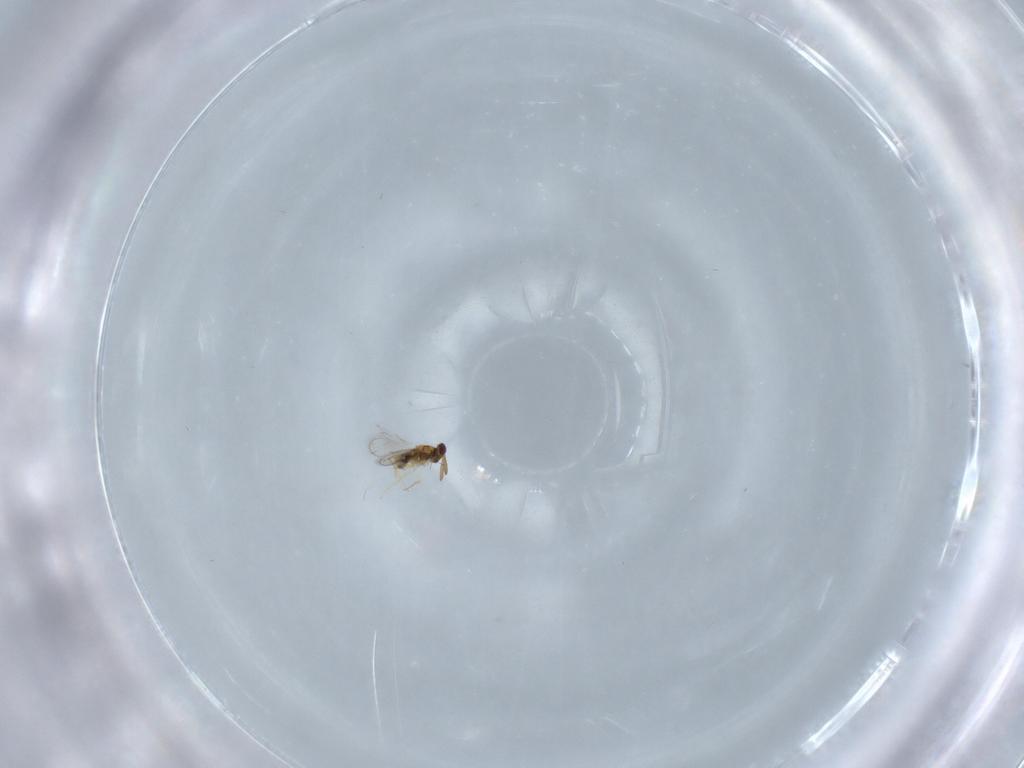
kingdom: Animalia
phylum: Arthropoda
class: Insecta
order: Hymenoptera
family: Aphelinidae
